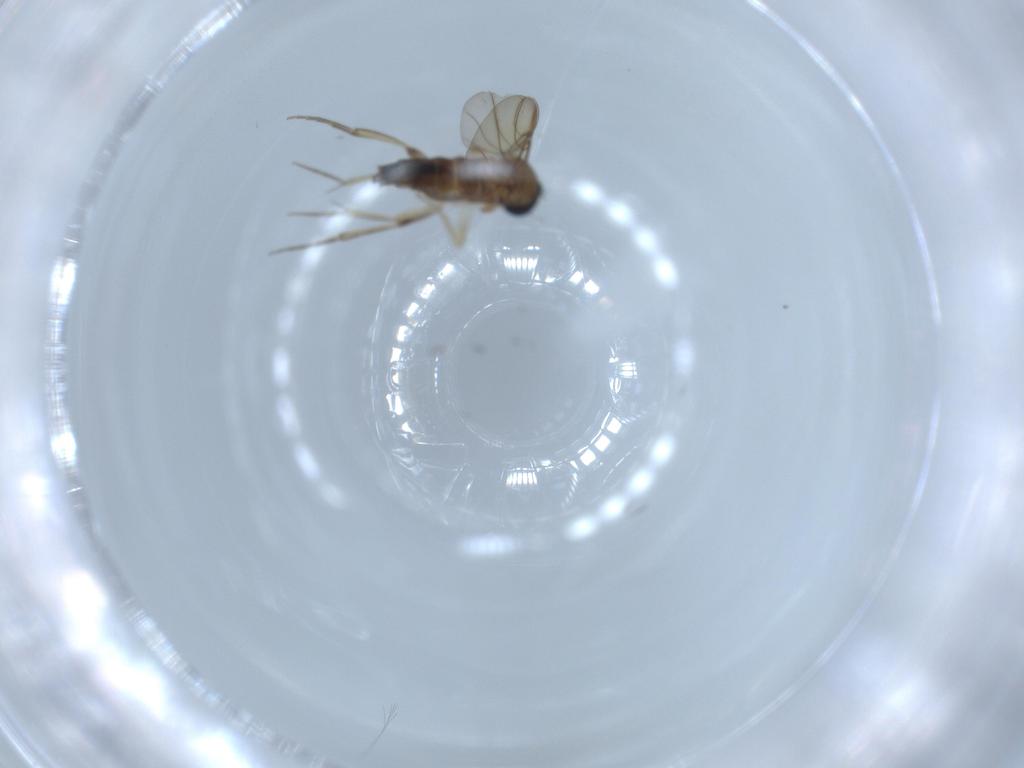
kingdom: Animalia
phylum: Arthropoda
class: Insecta
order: Diptera
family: Phoridae
